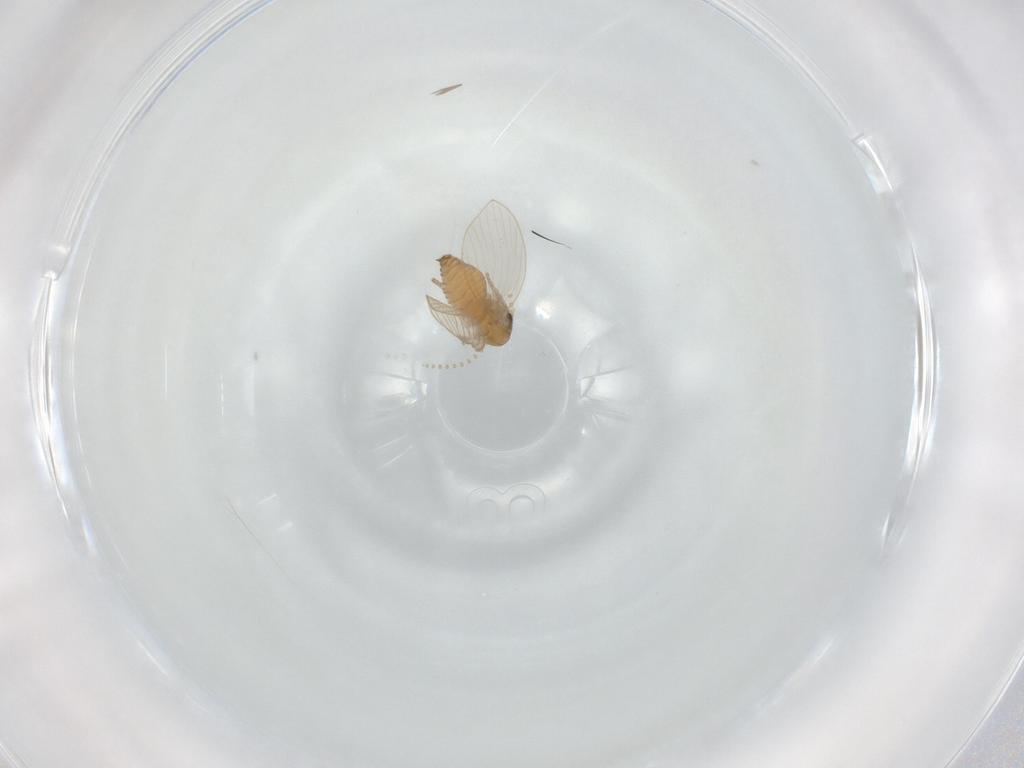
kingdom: Animalia
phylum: Arthropoda
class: Insecta
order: Diptera
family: Psychodidae
